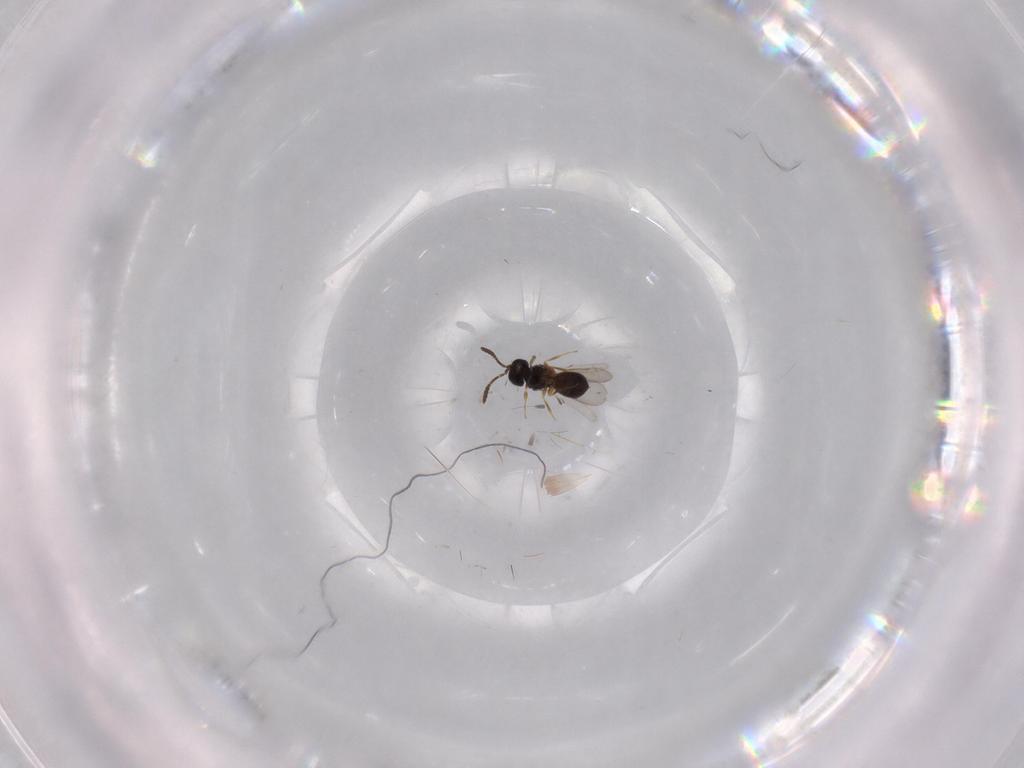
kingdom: Animalia
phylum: Arthropoda
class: Insecta
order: Hymenoptera
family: Scelionidae
